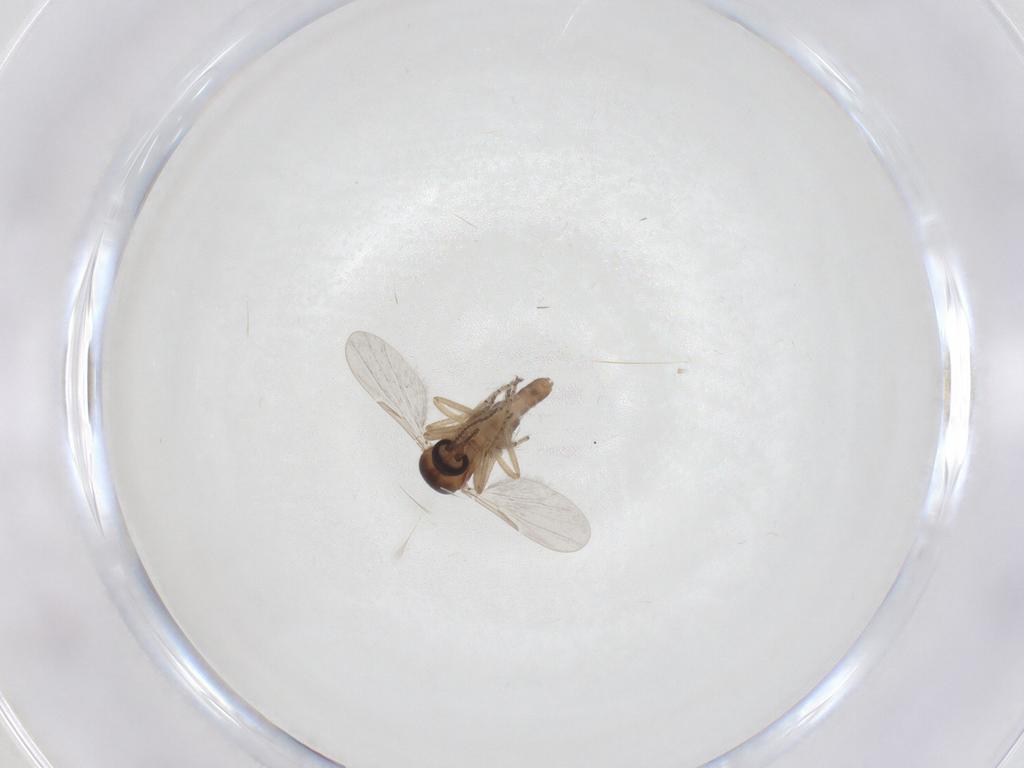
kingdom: Animalia
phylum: Arthropoda
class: Insecta
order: Diptera
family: Ceratopogonidae
